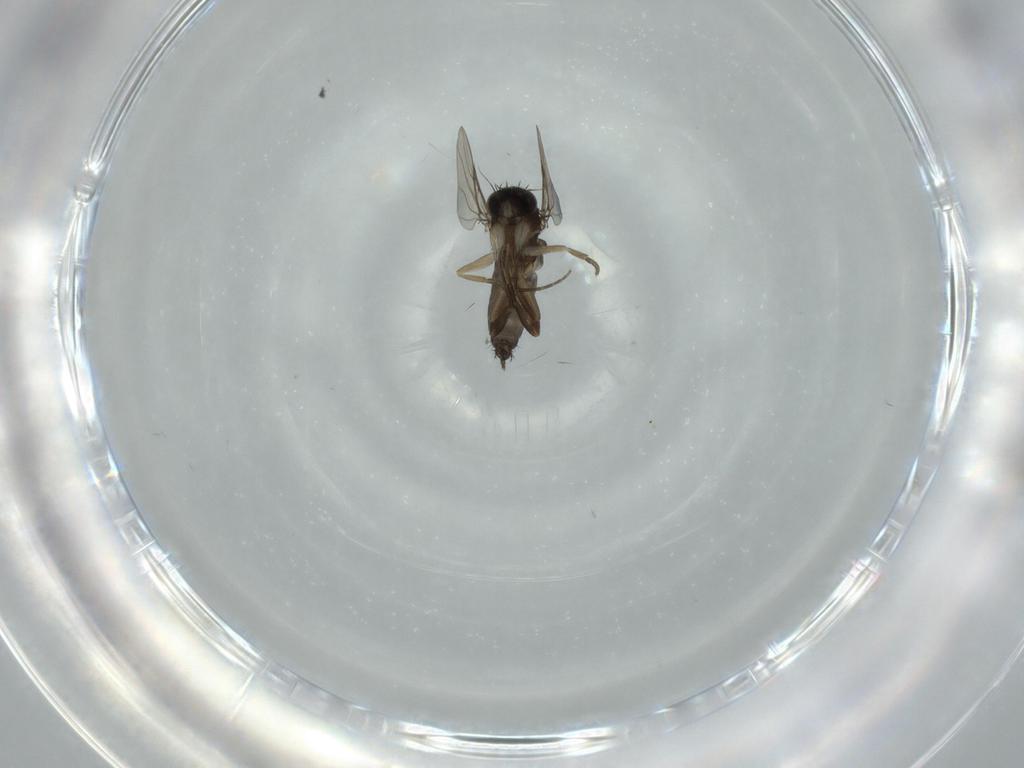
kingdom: Animalia
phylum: Arthropoda
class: Insecta
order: Diptera
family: Phoridae
